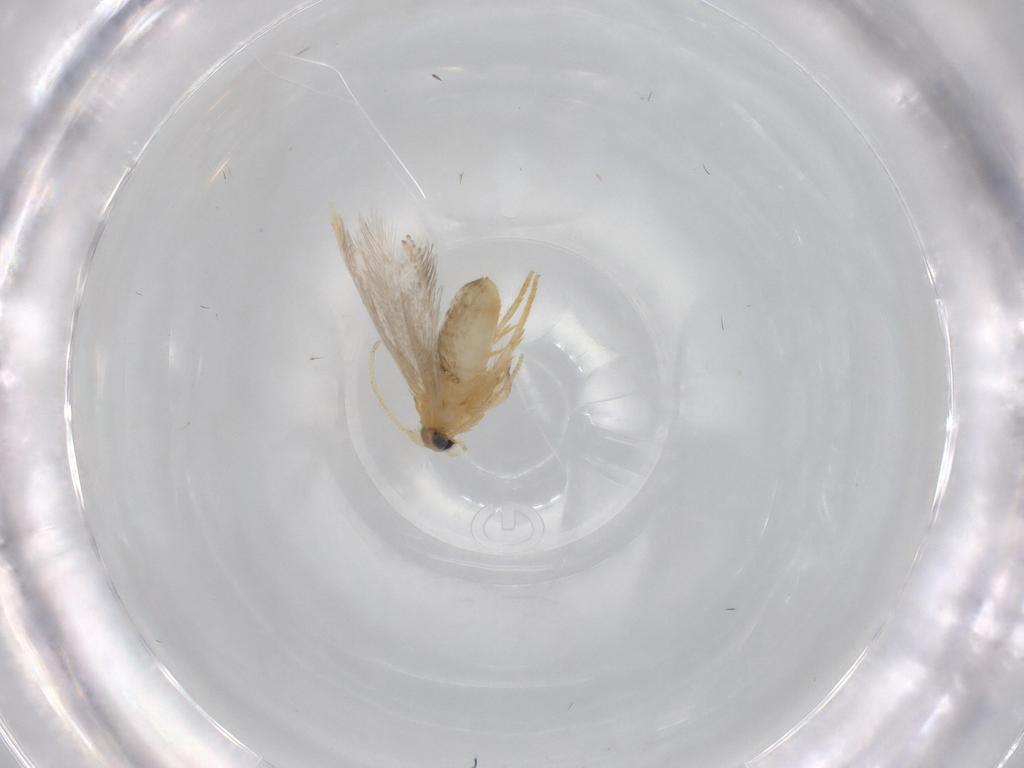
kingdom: Animalia
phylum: Arthropoda
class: Insecta
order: Lepidoptera
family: Nepticulidae
